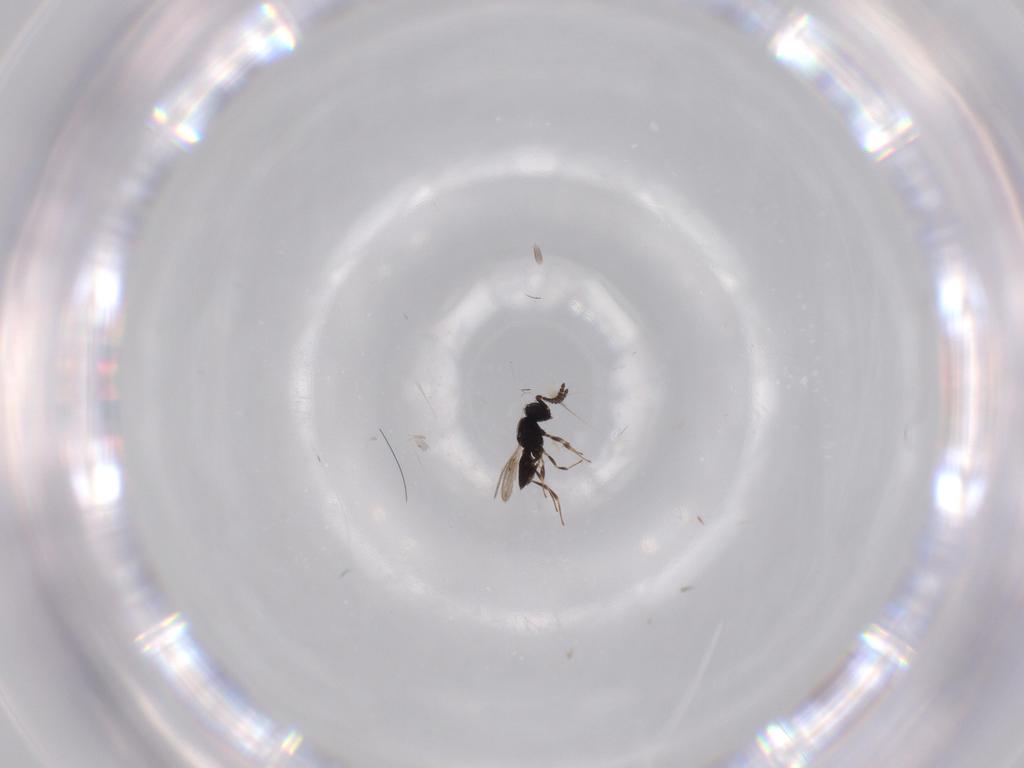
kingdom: Animalia
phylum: Arthropoda
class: Insecta
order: Hymenoptera
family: Scelionidae
